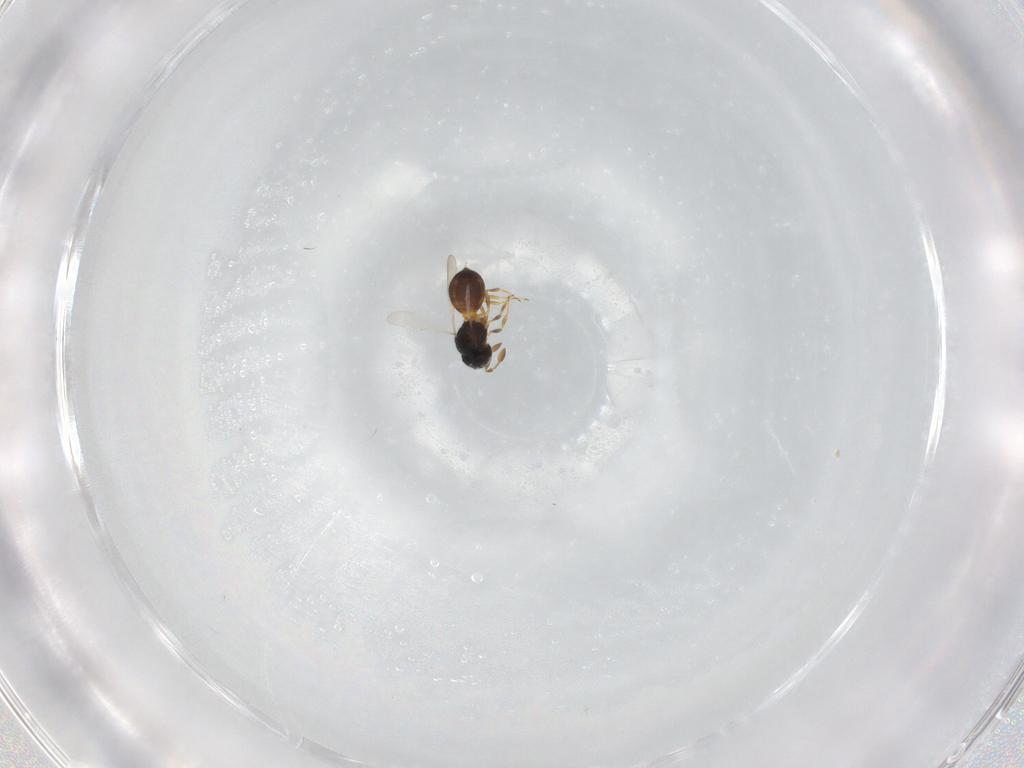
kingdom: Animalia
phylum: Arthropoda
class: Insecta
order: Hymenoptera
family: Scelionidae
